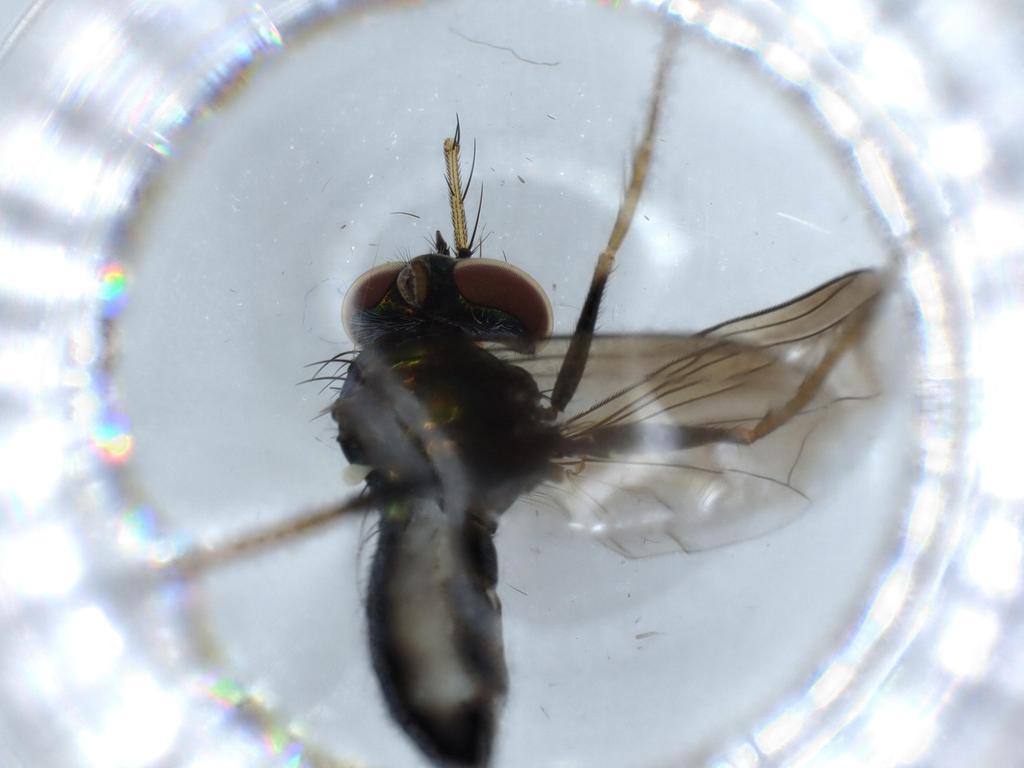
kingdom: Animalia
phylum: Arthropoda
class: Insecta
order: Diptera
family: Dolichopodidae
